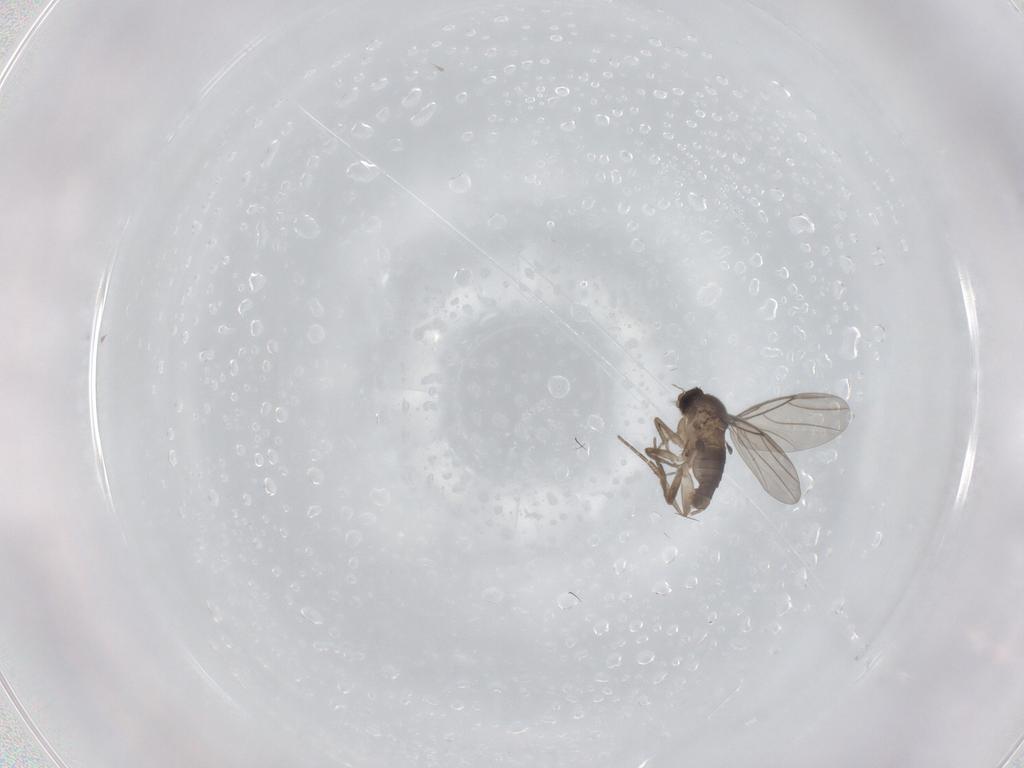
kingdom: Animalia
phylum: Arthropoda
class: Insecta
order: Diptera
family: Phoridae
